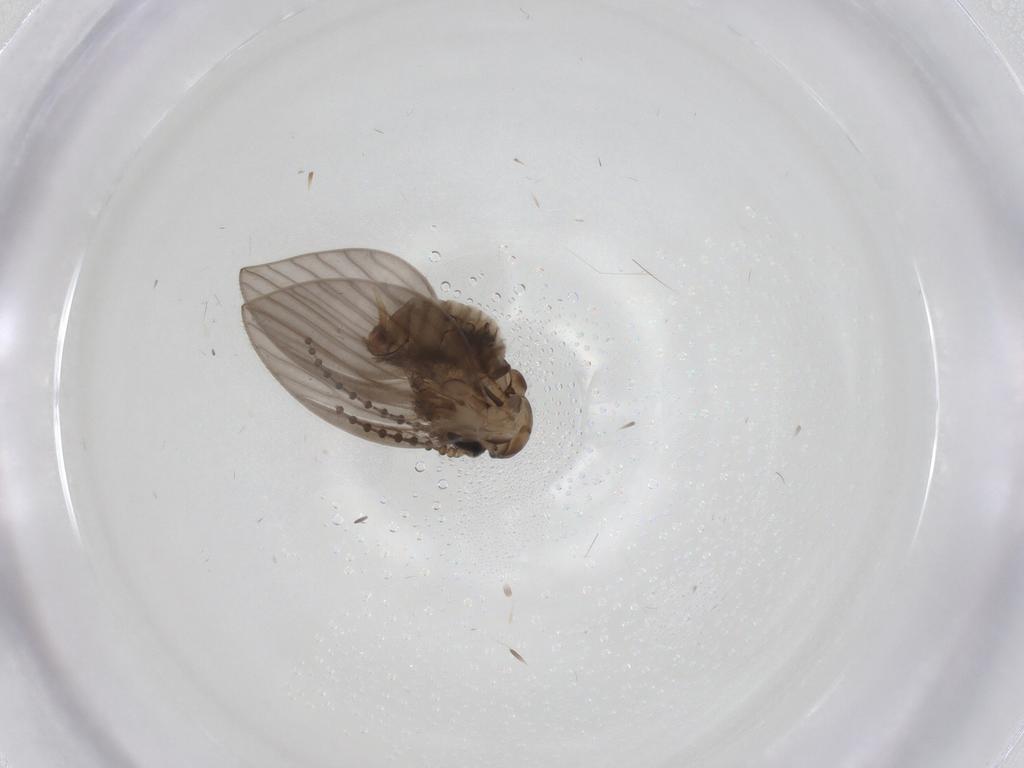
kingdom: Animalia
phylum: Arthropoda
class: Insecta
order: Diptera
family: Psychodidae
